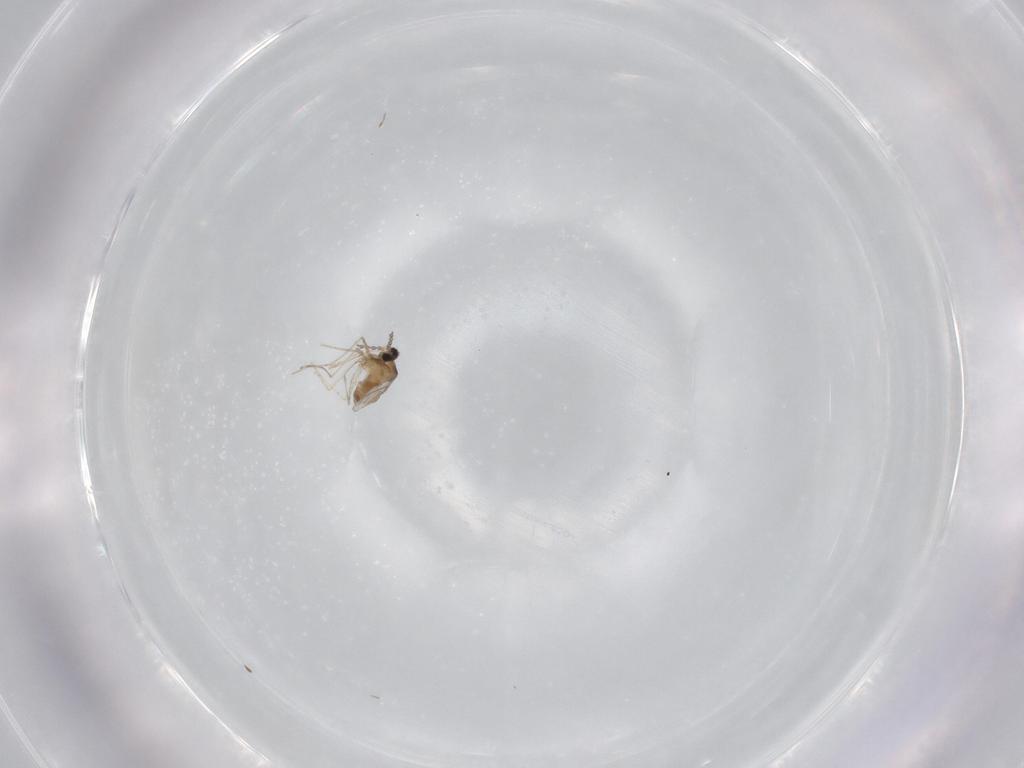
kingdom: Animalia
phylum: Arthropoda
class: Insecta
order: Diptera
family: Cecidomyiidae
